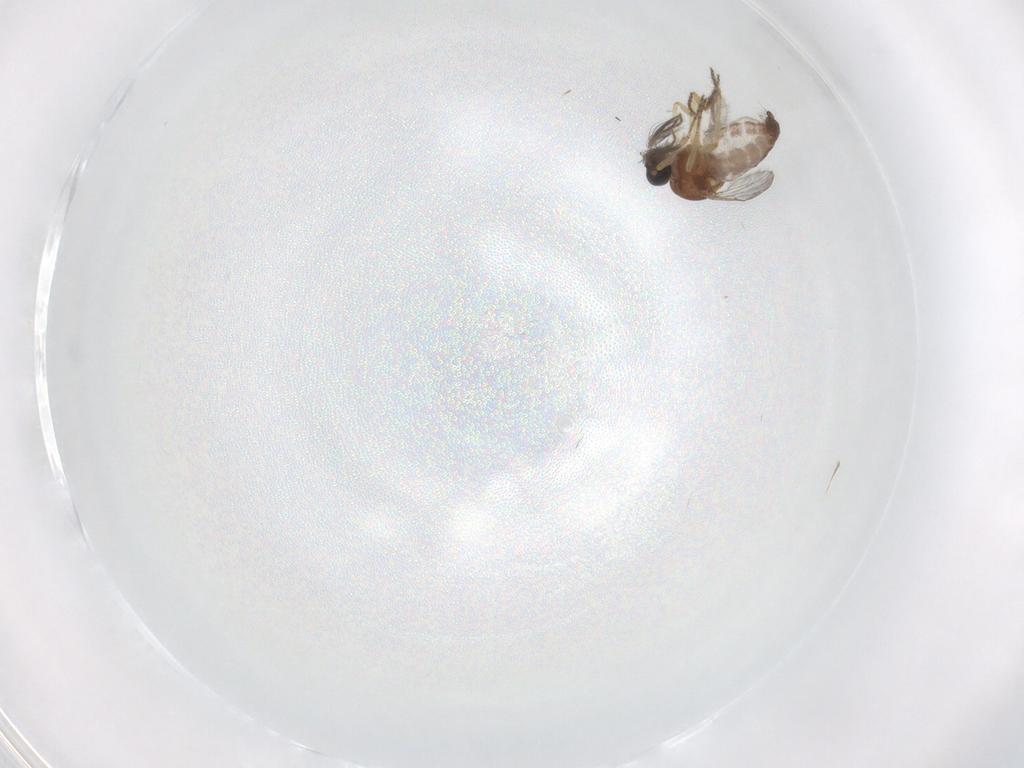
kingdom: Animalia
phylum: Arthropoda
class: Insecta
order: Diptera
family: Ceratopogonidae
